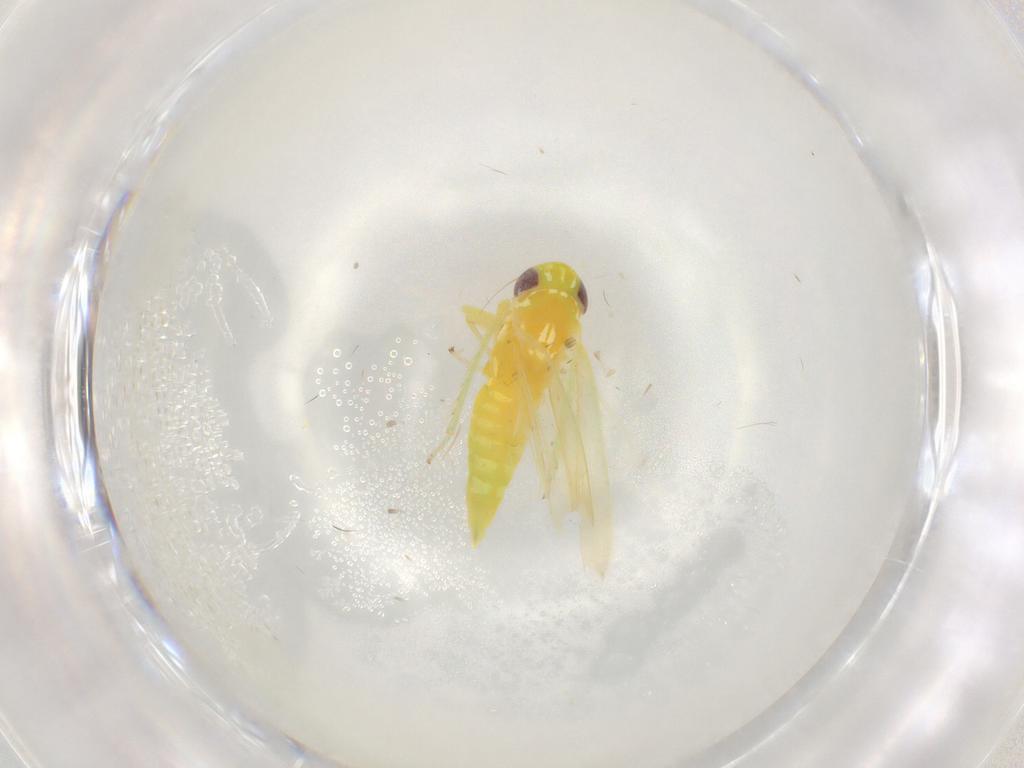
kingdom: Animalia
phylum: Arthropoda
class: Insecta
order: Hemiptera
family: Cicadellidae
